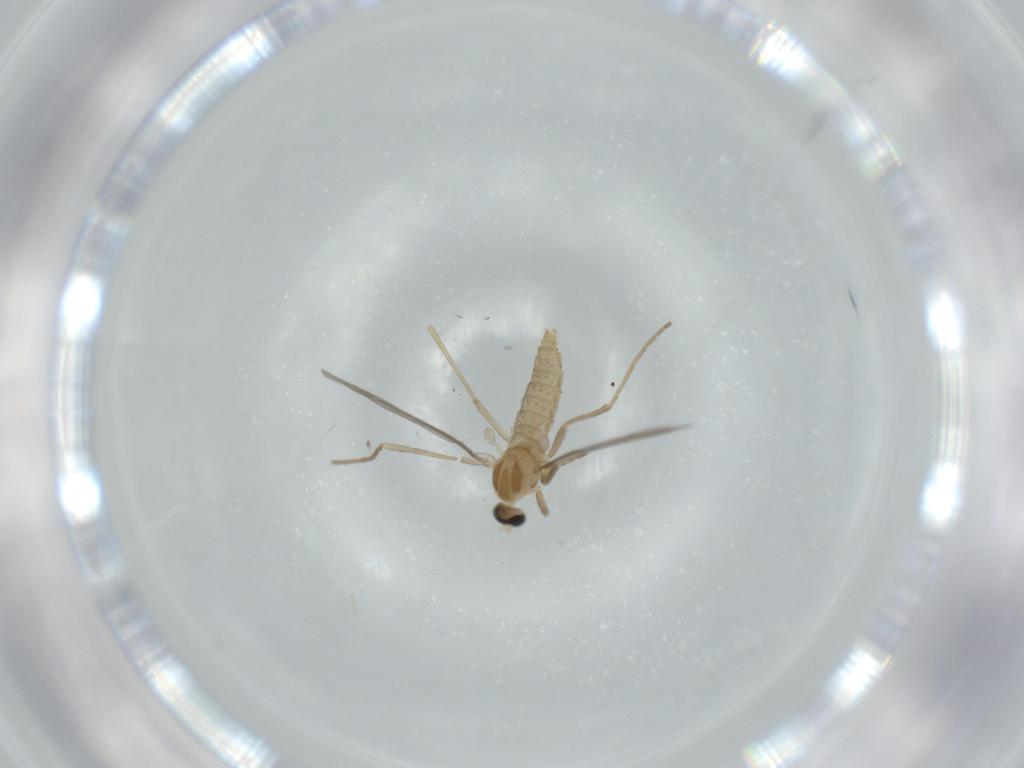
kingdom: Animalia
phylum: Arthropoda
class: Insecta
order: Diptera
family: Cecidomyiidae
